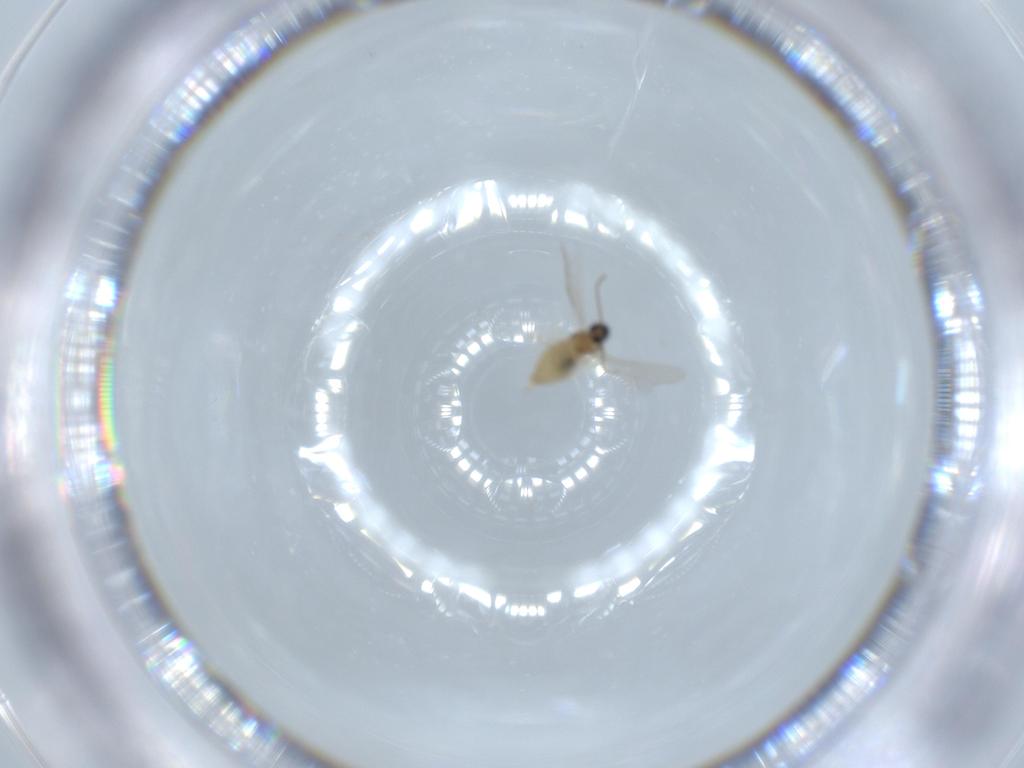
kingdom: Animalia
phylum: Arthropoda
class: Insecta
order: Diptera
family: Cecidomyiidae
